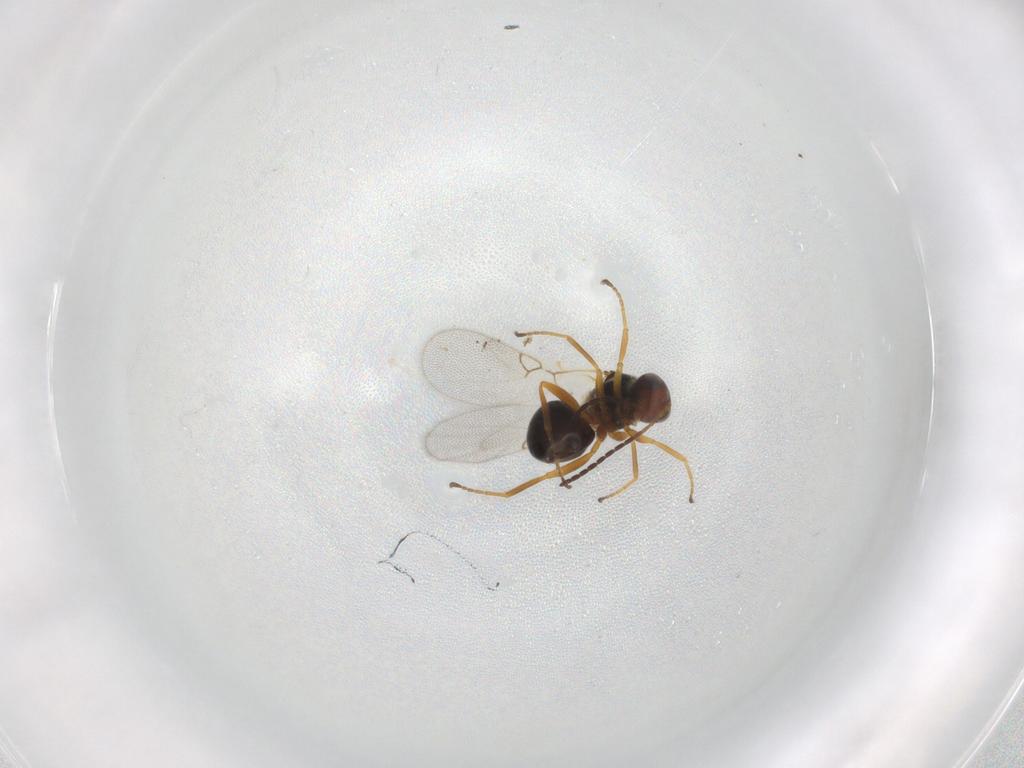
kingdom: Animalia
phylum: Arthropoda
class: Insecta
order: Hymenoptera
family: Figitidae
